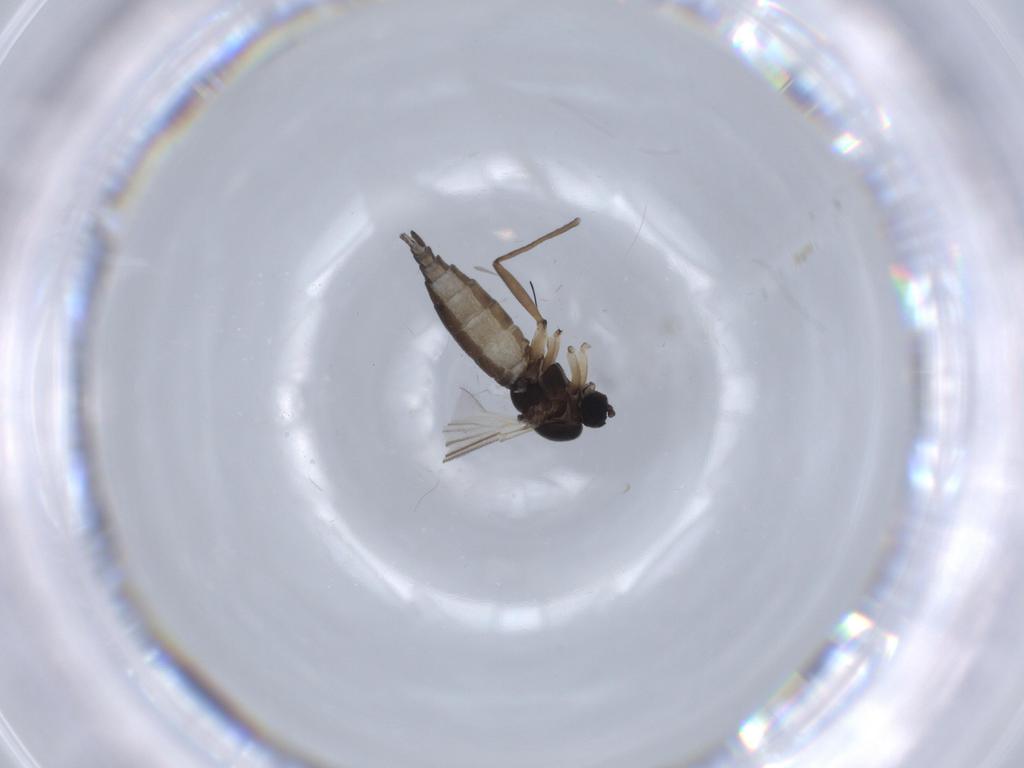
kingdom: Animalia
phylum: Arthropoda
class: Insecta
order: Diptera
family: Sciaridae
